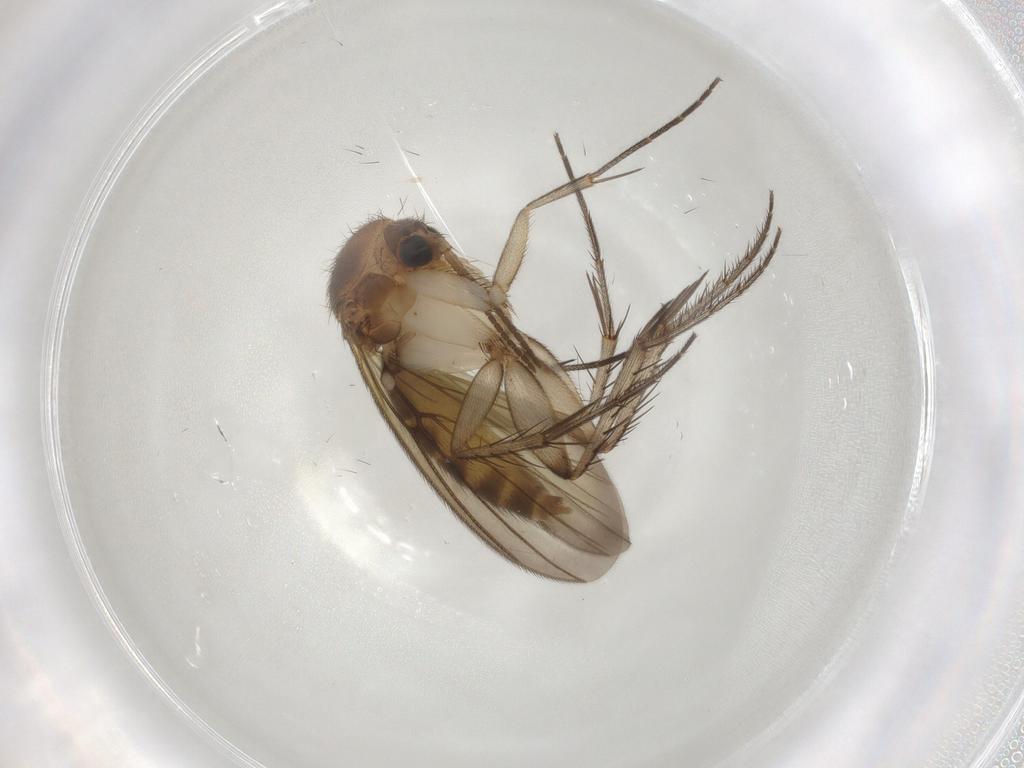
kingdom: Animalia
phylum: Arthropoda
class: Insecta
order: Diptera
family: Mycetophilidae
